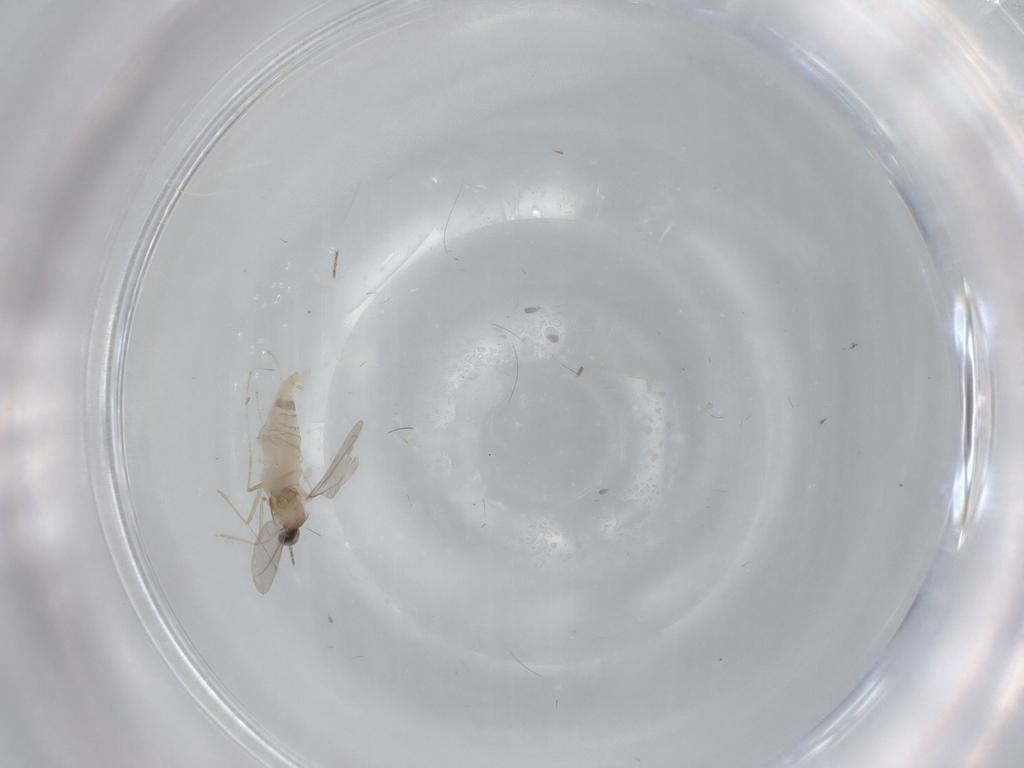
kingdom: Animalia
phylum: Arthropoda
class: Insecta
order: Diptera
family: Cecidomyiidae
